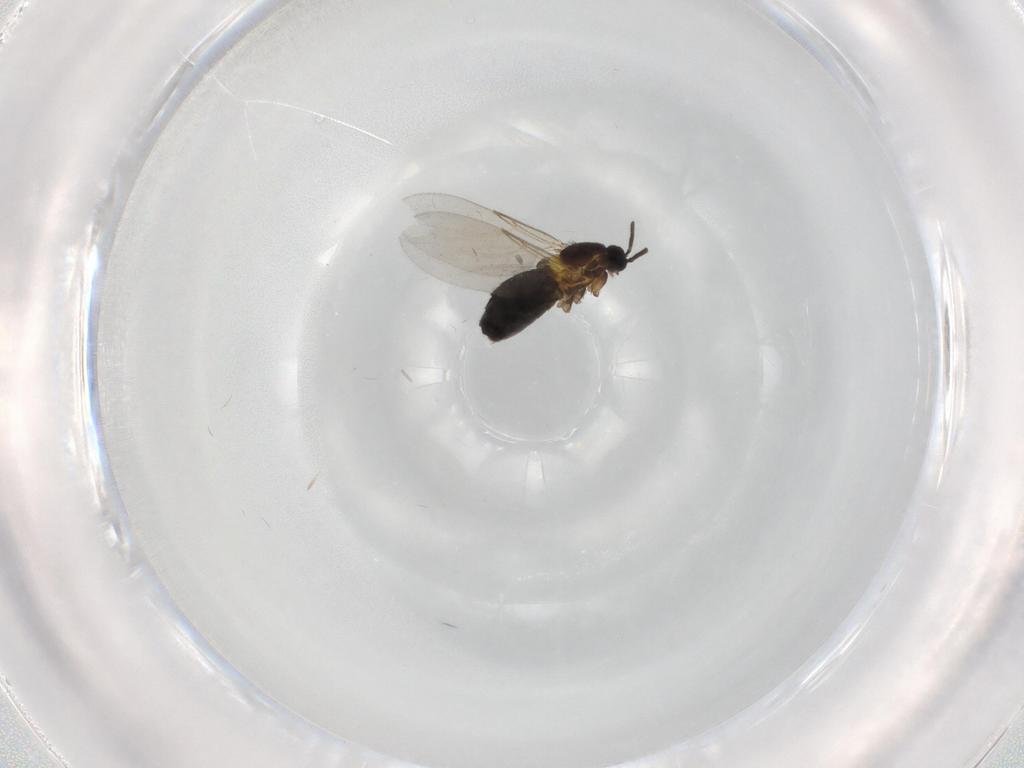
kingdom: Animalia
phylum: Arthropoda
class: Insecta
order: Diptera
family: Scatopsidae
